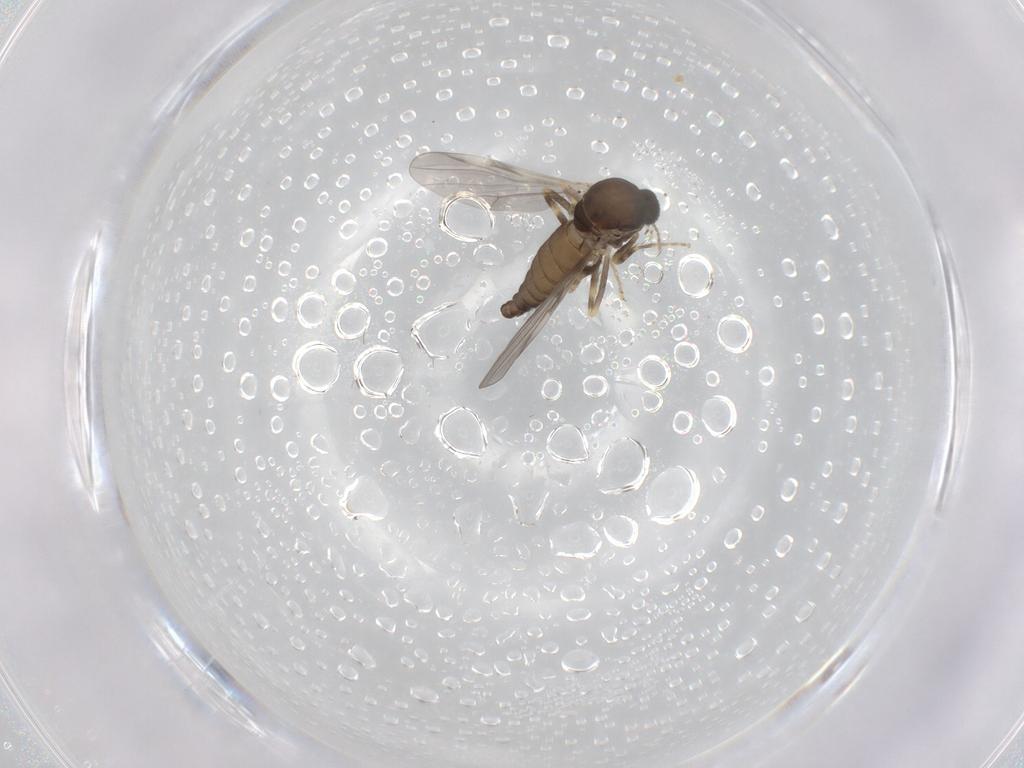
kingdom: Animalia
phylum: Arthropoda
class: Insecta
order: Diptera
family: Ceratopogonidae
